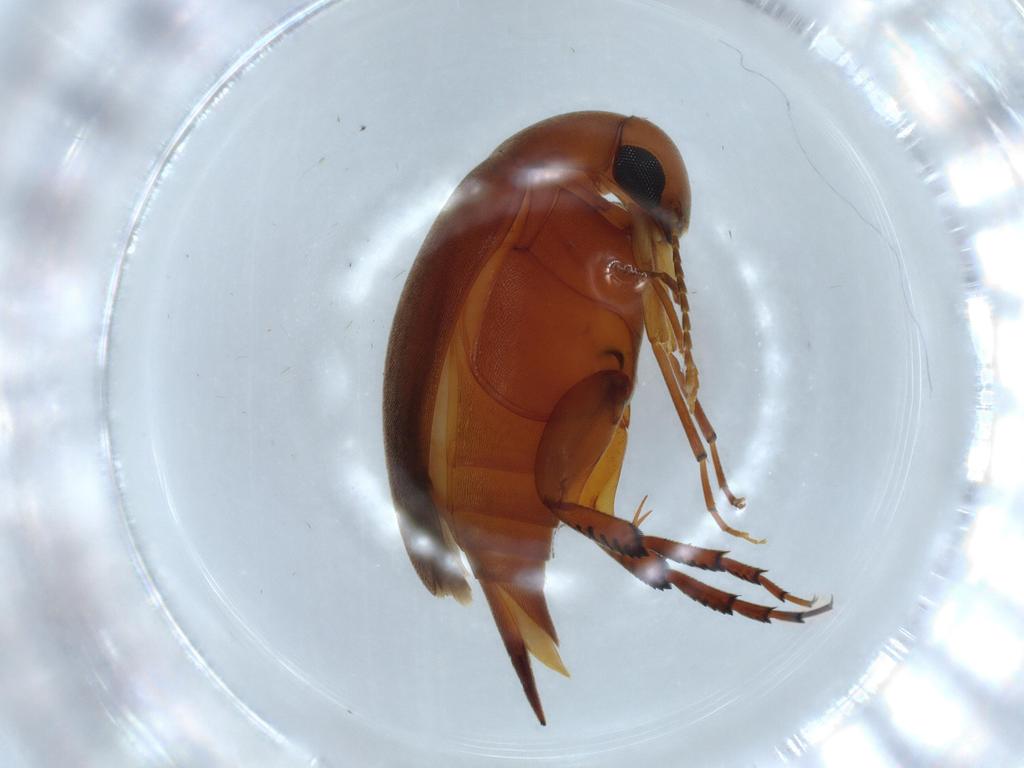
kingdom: Animalia
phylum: Arthropoda
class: Insecta
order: Coleoptera
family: Mordellidae
